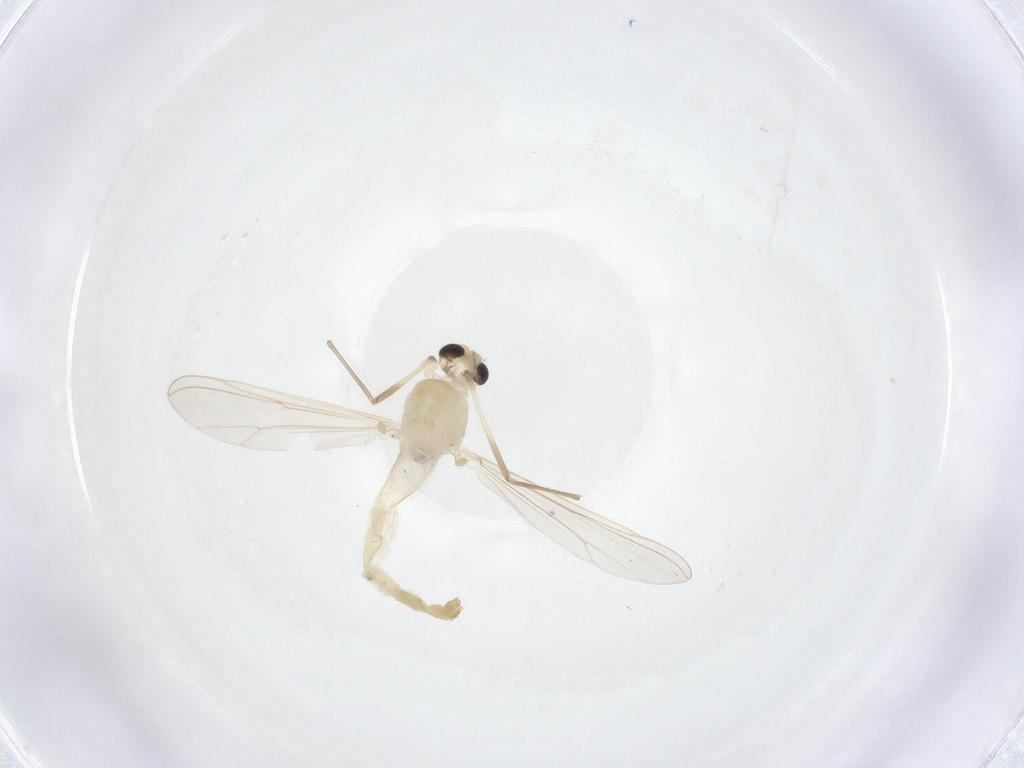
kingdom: Animalia
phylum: Arthropoda
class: Insecta
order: Diptera
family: Chironomidae
